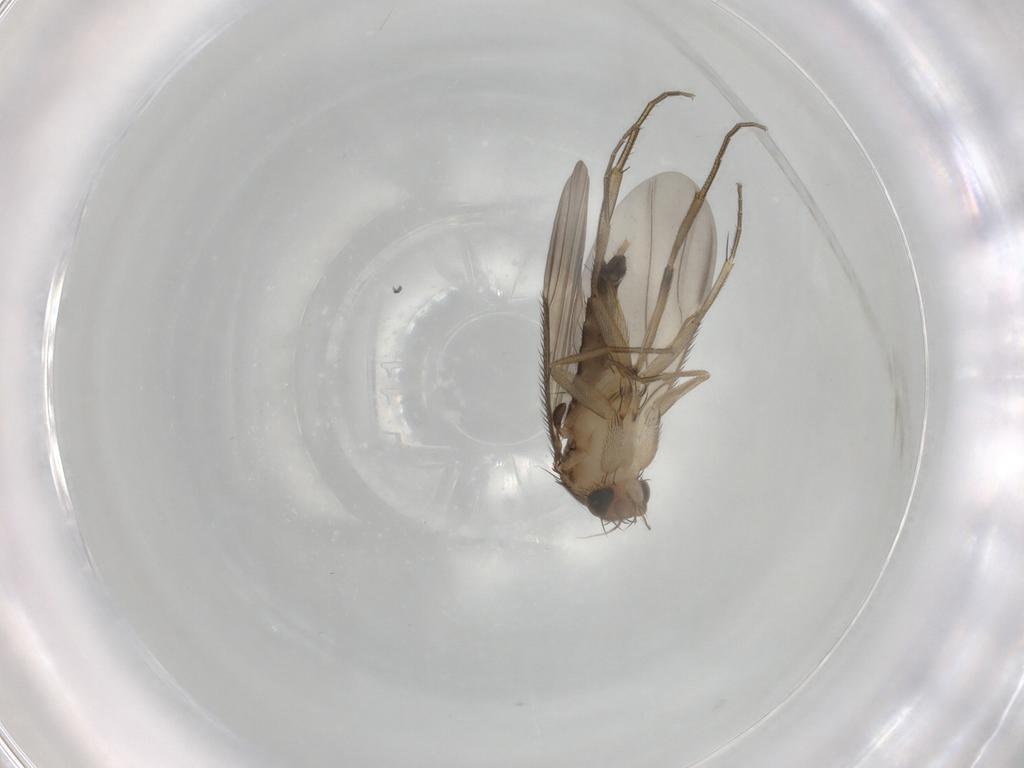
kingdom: Animalia
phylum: Arthropoda
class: Insecta
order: Diptera
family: Phoridae
